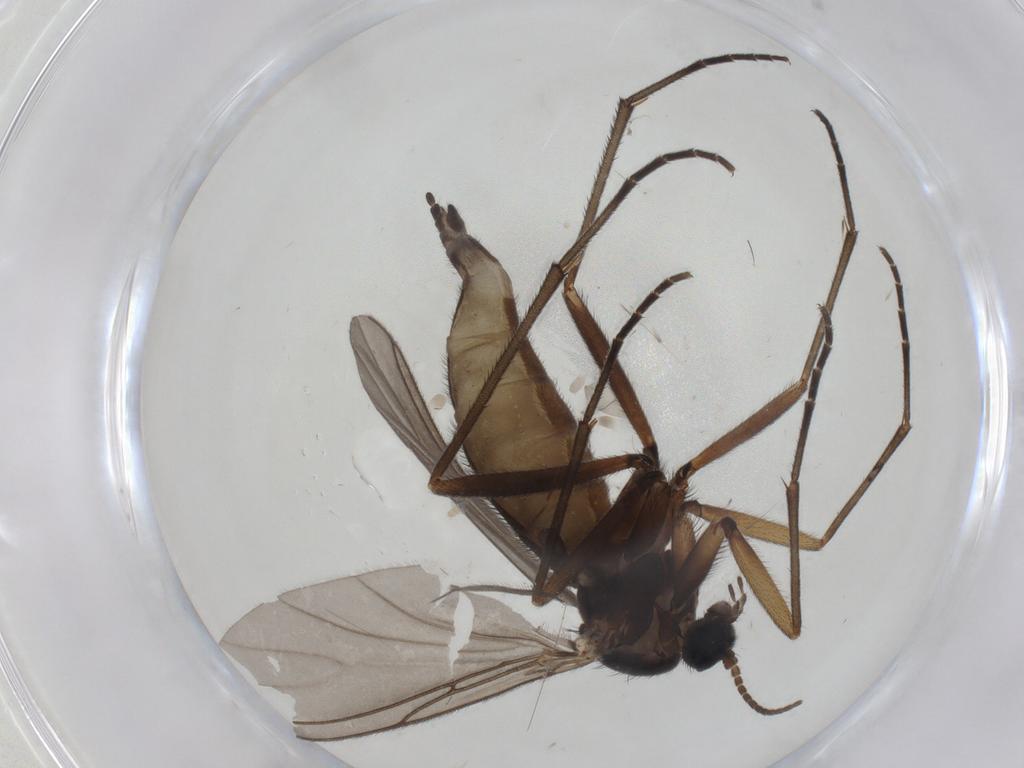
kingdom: Animalia
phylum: Arthropoda
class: Insecta
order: Diptera
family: Sciaridae
